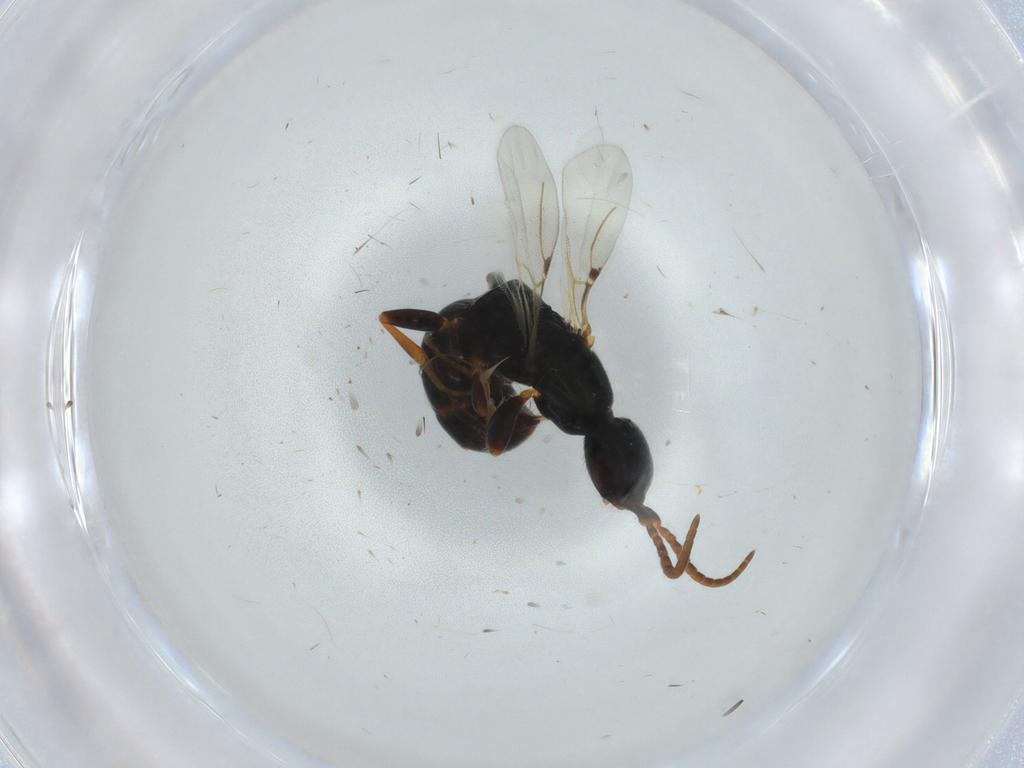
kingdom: Animalia
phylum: Arthropoda
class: Insecta
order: Hymenoptera
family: Bethylidae
